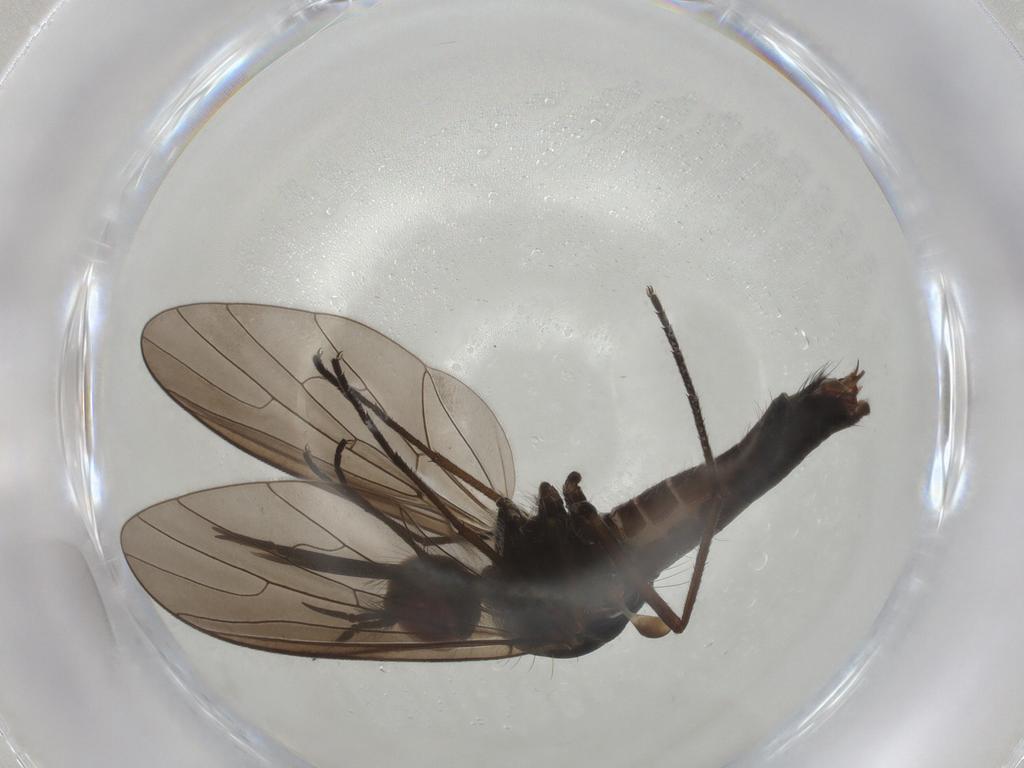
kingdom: Animalia
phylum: Arthropoda
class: Insecta
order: Diptera
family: Bombyliidae
